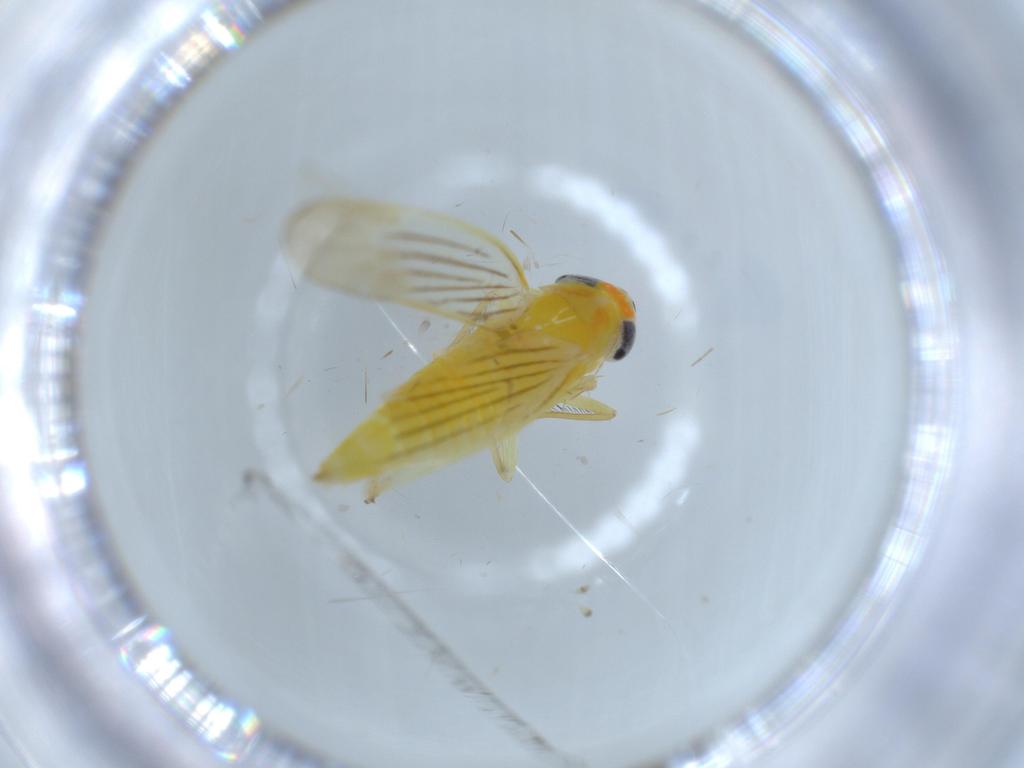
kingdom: Animalia
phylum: Arthropoda
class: Insecta
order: Hemiptera
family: Cicadellidae
